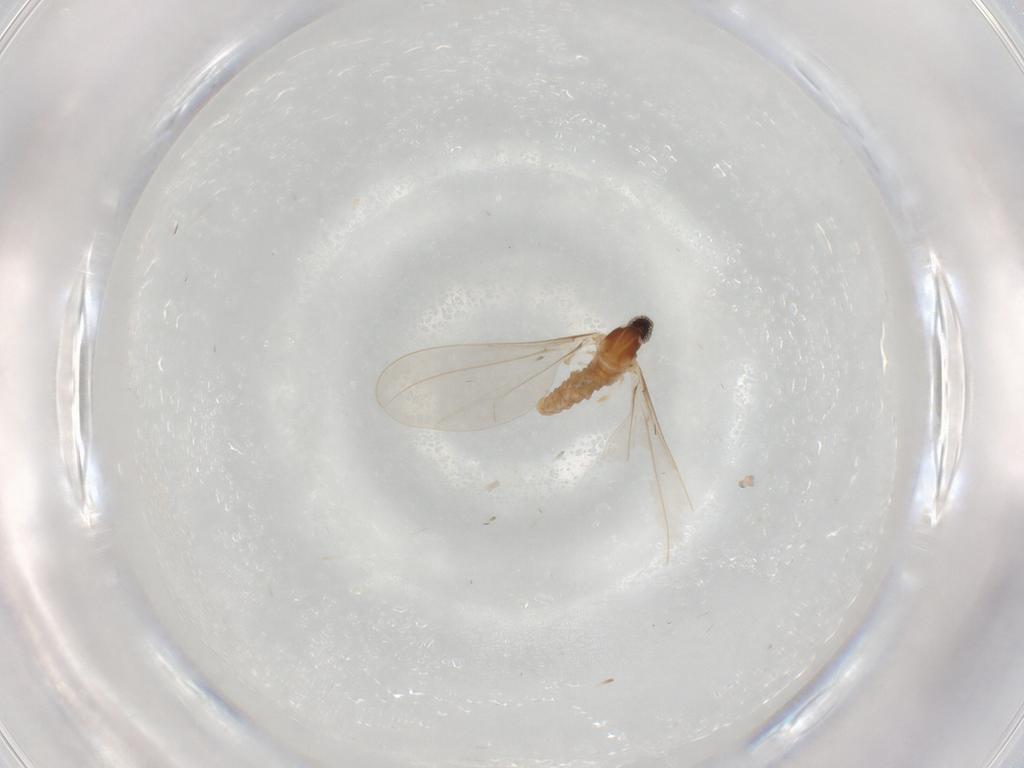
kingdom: Animalia
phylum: Arthropoda
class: Insecta
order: Diptera
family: Cecidomyiidae
